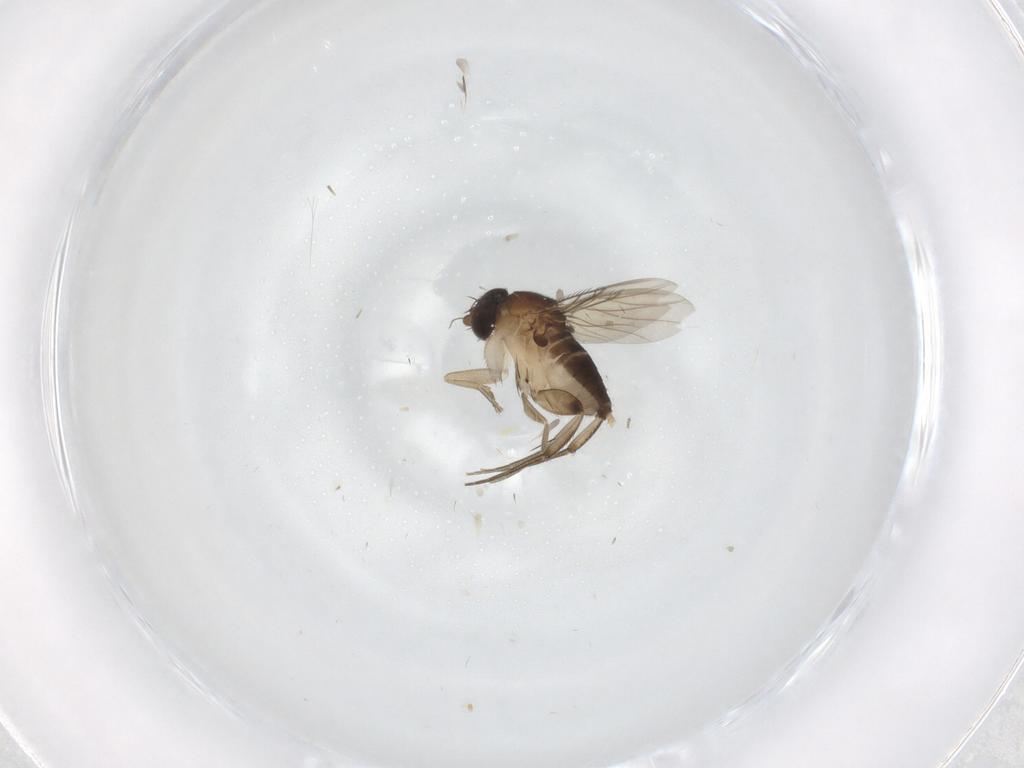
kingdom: Animalia
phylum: Arthropoda
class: Insecta
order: Diptera
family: Phoridae
